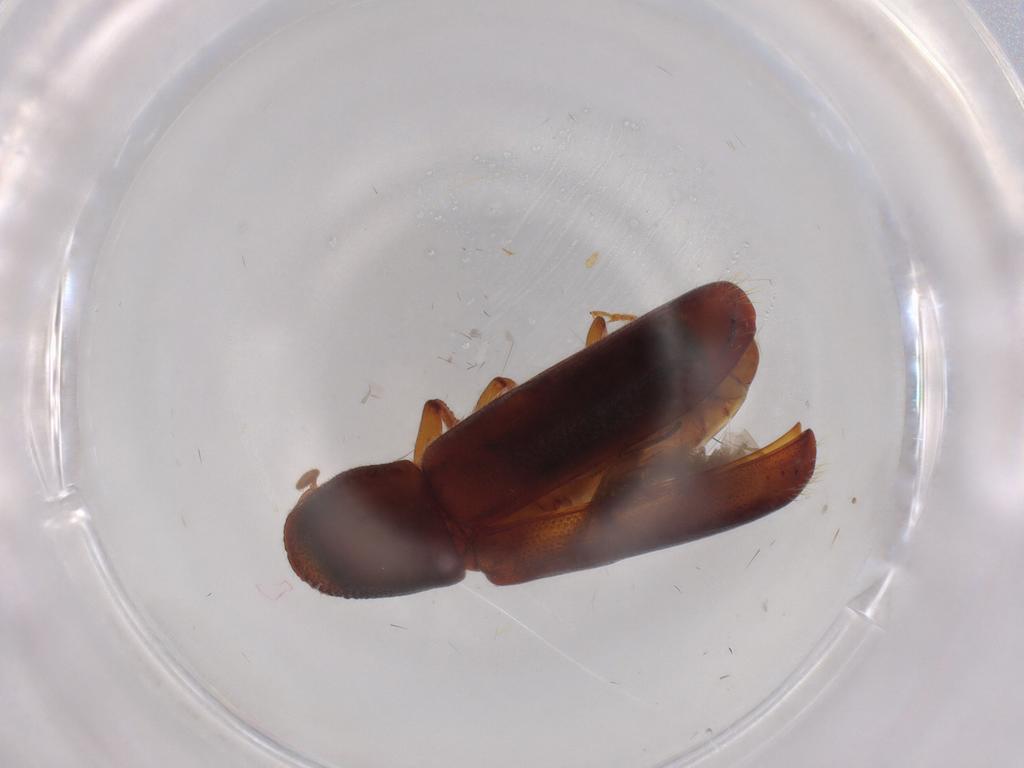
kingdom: Animalia
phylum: Arthropoda
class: Insecta
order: Coleoptera
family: Curculionidae
